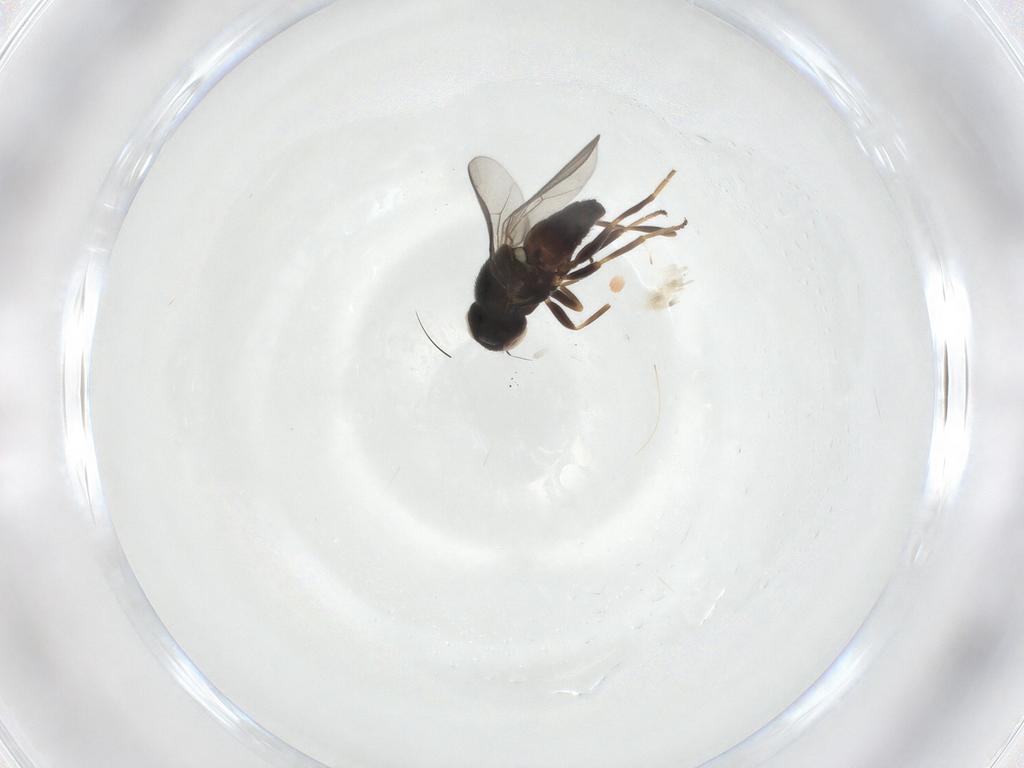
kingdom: Animalia
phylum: Arthropoda
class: Insecta
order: Diptera
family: Chloropidae
